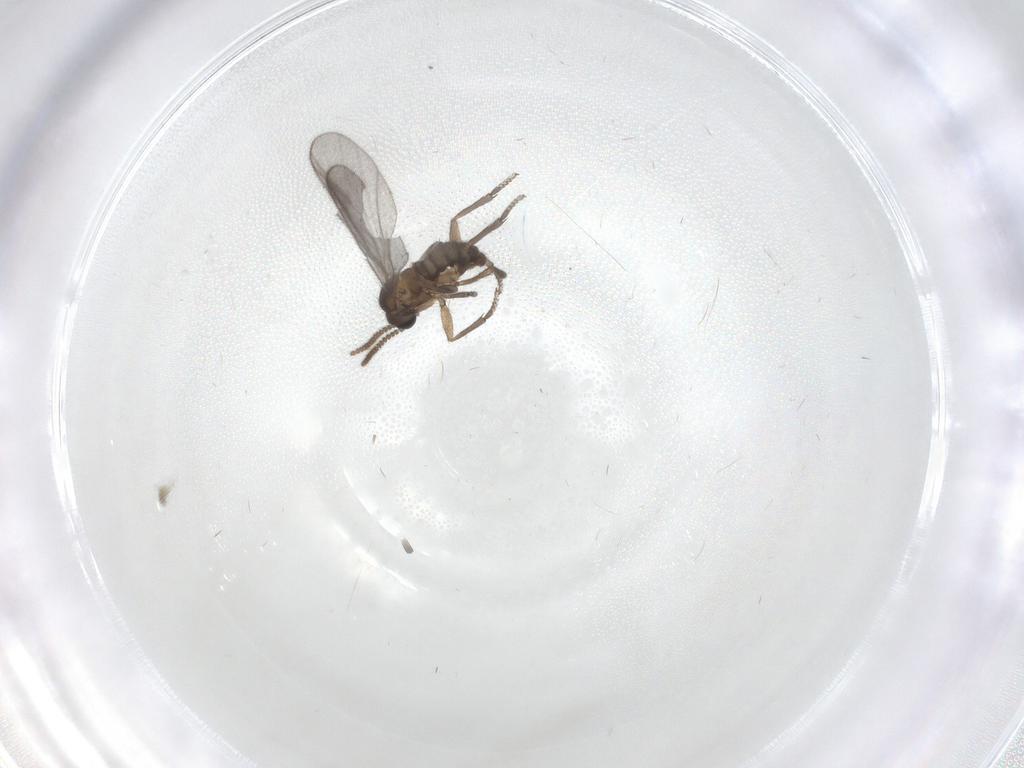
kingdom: Animalia
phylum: Arthropoda
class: Insecta
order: Diptera
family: Sciaridae
